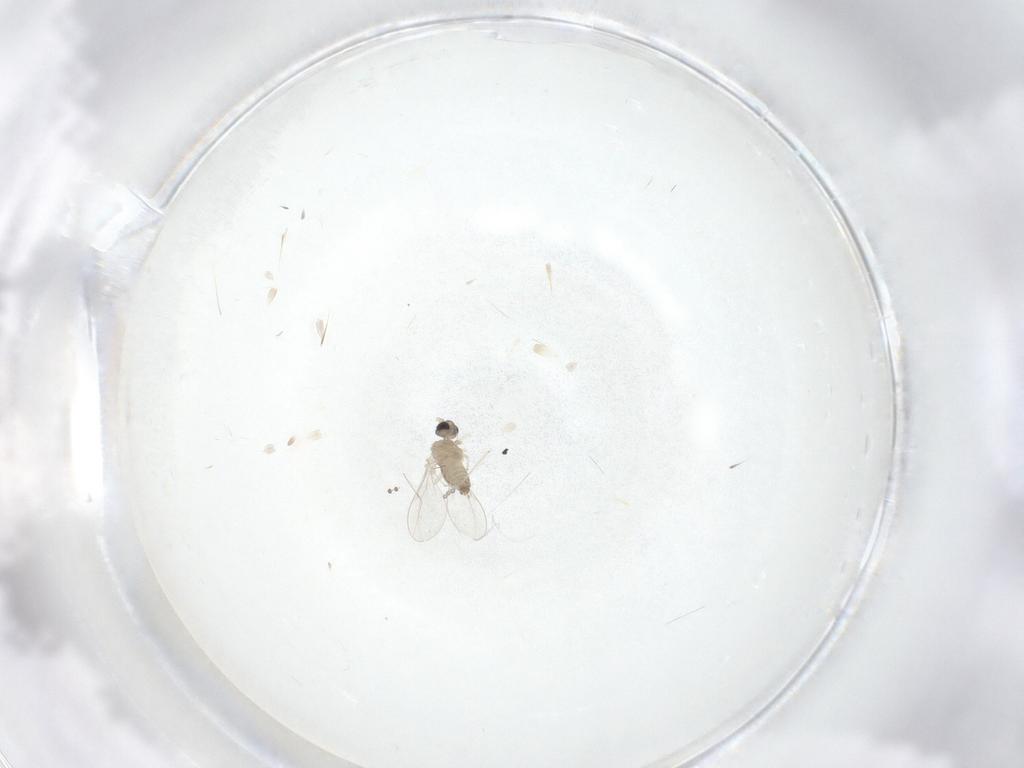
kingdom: Animalia
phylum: Arthropoda
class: Insecta
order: Diptera
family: Cecidomyiidae
